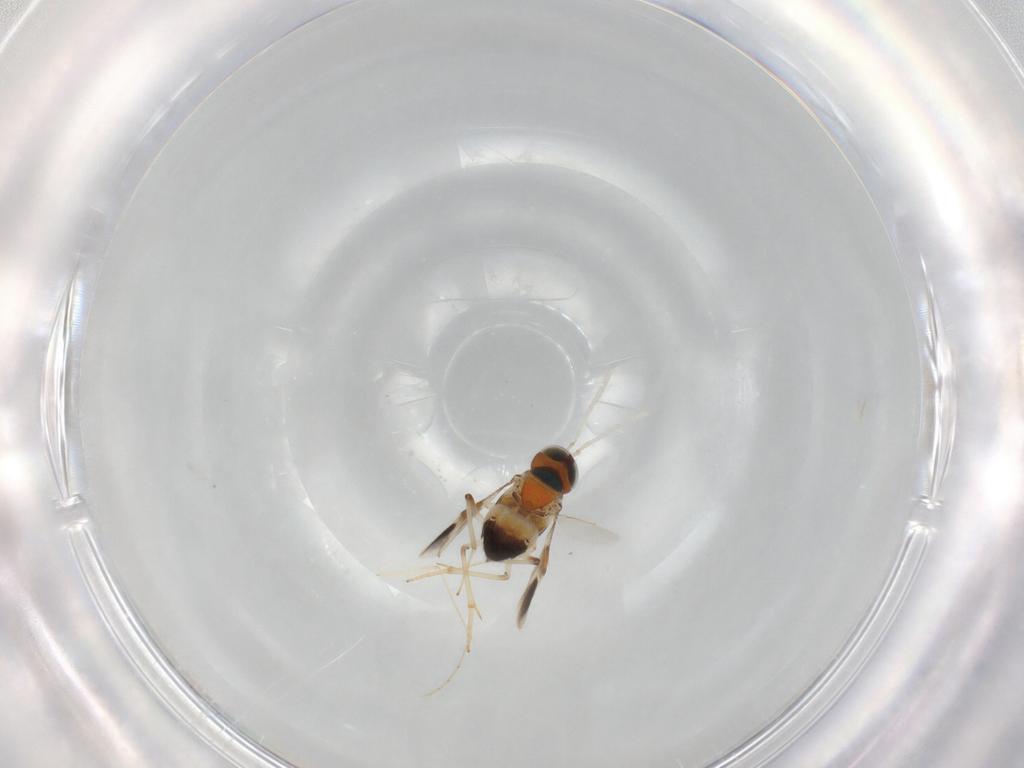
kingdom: Animalia
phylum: Arthropoda
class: Insecta
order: Hymenoptera
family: Encyrtidae
